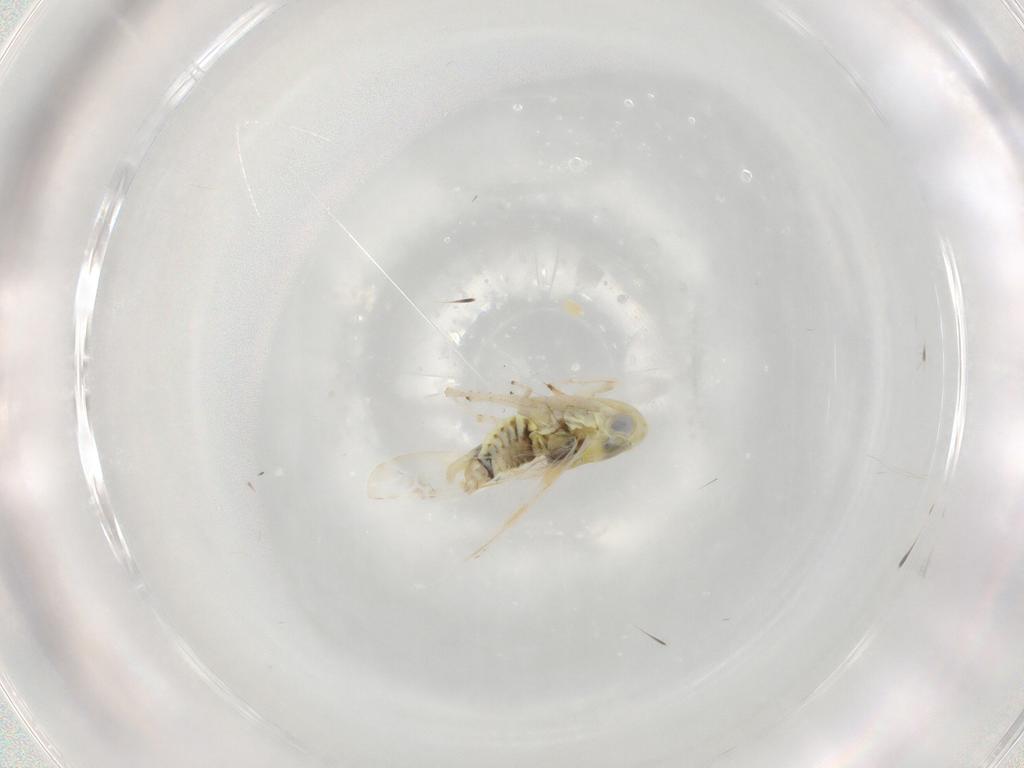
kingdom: Animalia
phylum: Arthropoda
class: Insecta
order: Hemiptera
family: Cicadellidae
